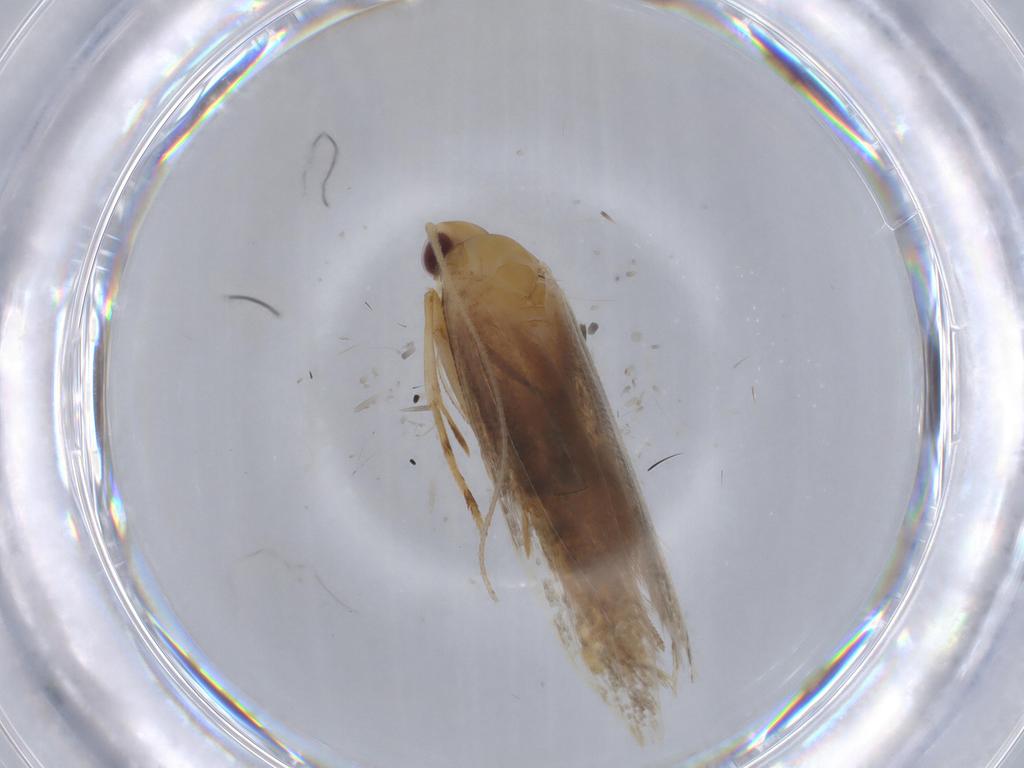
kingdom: Animalia
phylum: Arthropoda
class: Insecta
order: Lepidoptera
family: Cosmopterigidae
